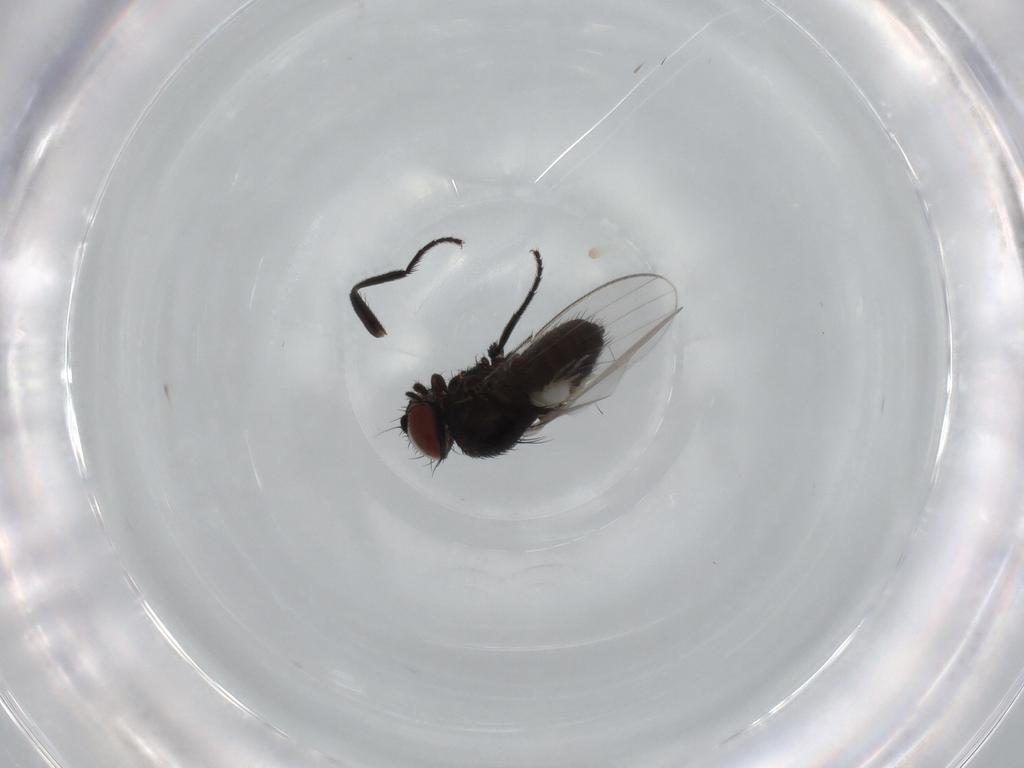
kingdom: Animalia
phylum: Arthropoda
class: Insecta
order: Diptera
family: Milichiidae
